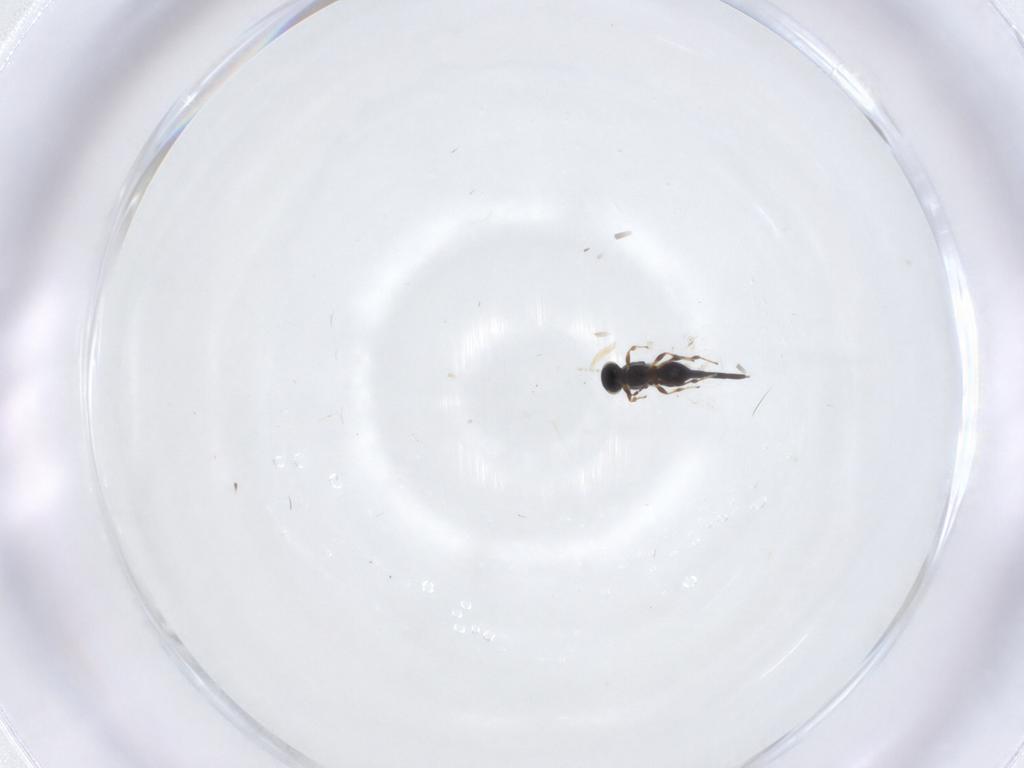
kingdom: Animalia
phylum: Arthropoda
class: Insecta
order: Hymenoptera
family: Platygastridae
